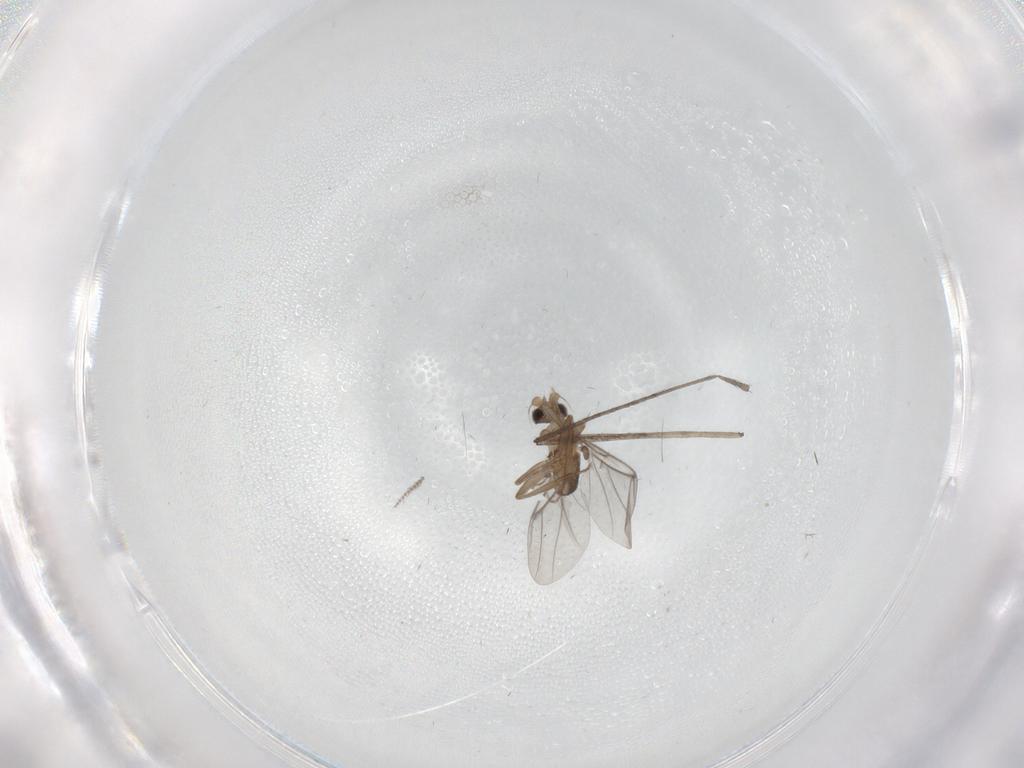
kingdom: Animalia
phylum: Arthropoda
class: Insecta
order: Diptera
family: Limoniidae
